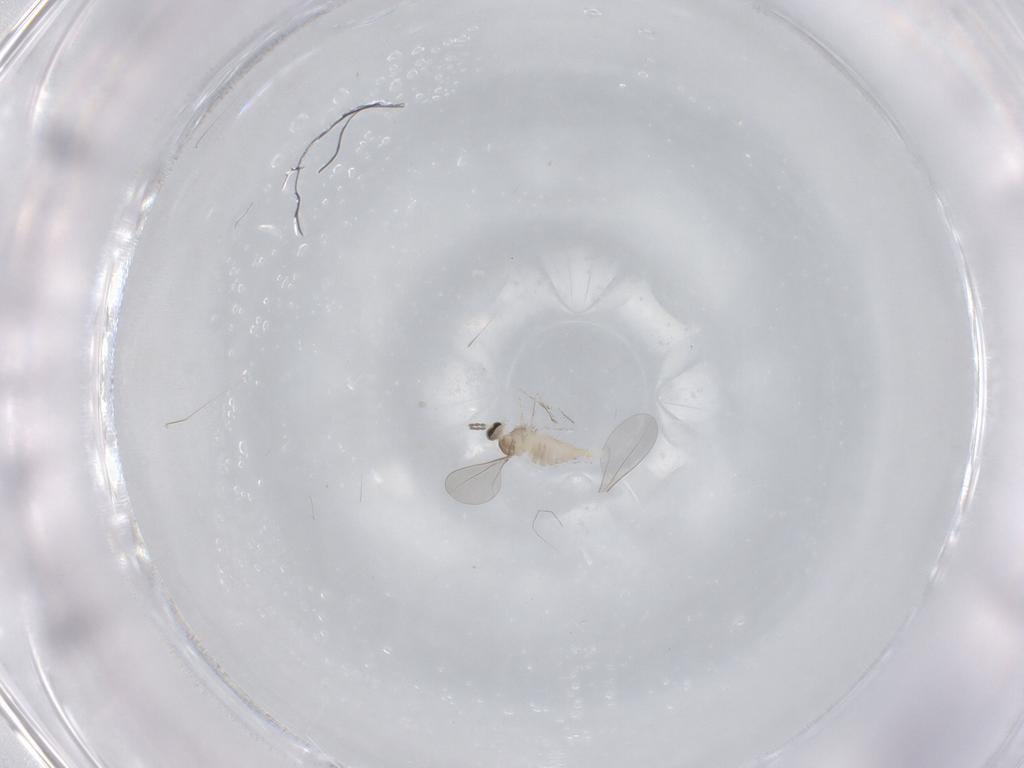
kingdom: Animalia
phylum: Arthropoda
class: Insecta
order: Diptera
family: Cecidomyiidae
